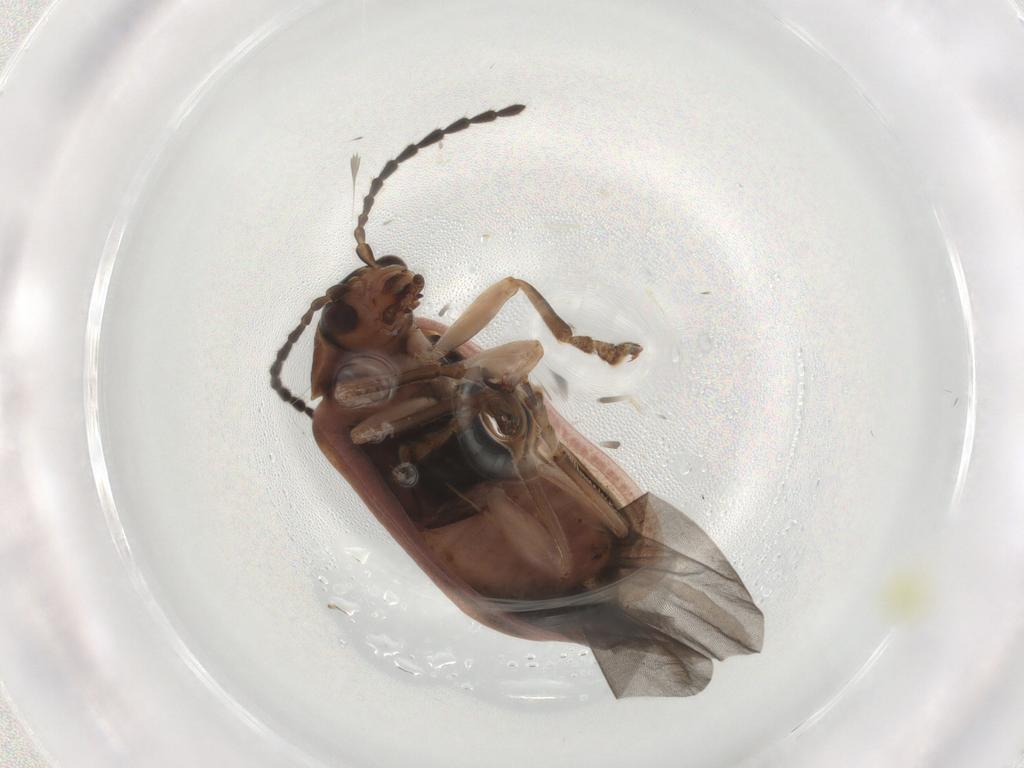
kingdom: Animalia
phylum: Arthropoda
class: Insecta
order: Coleoptera
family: Chrysomelidae
